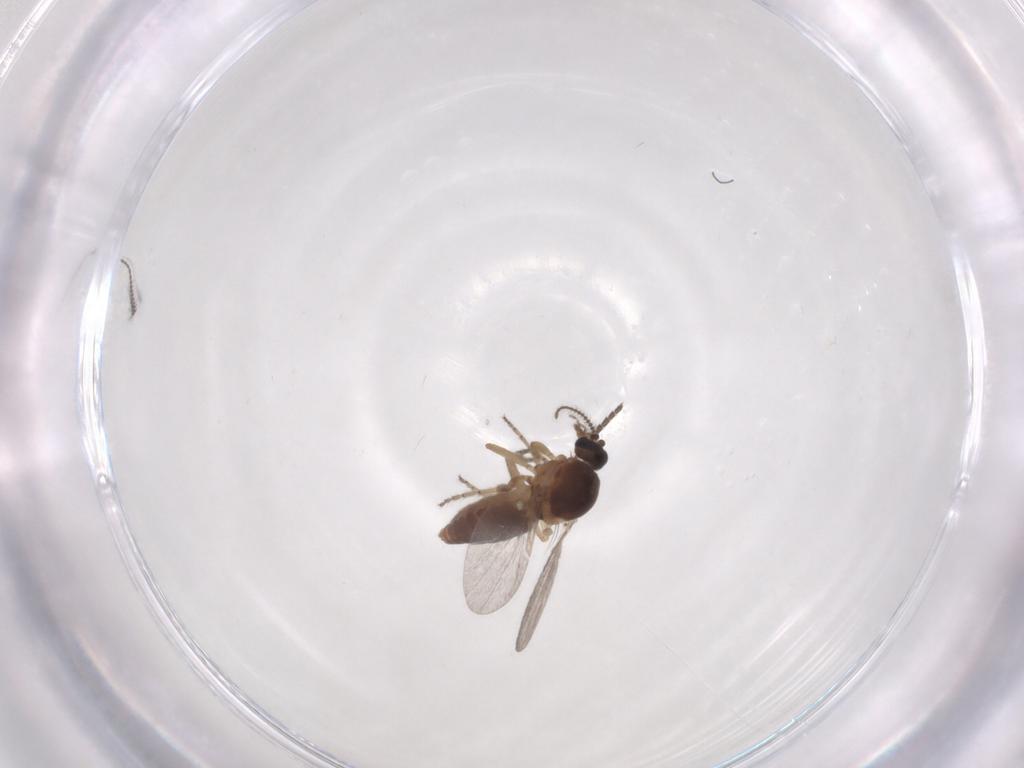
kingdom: Animalia
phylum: Arthropoda
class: Insecta
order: Diptera
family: Ceratopogonidae
